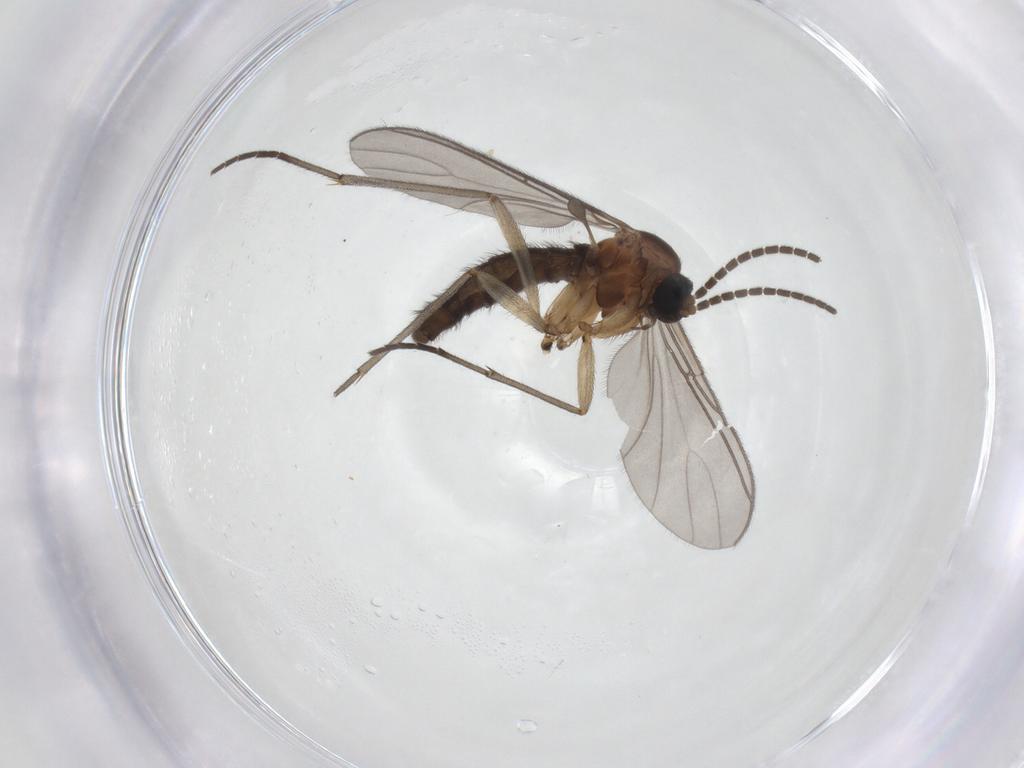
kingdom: Animalia
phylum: Arthropoda
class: Insecta
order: Diptera
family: Sciaridae
